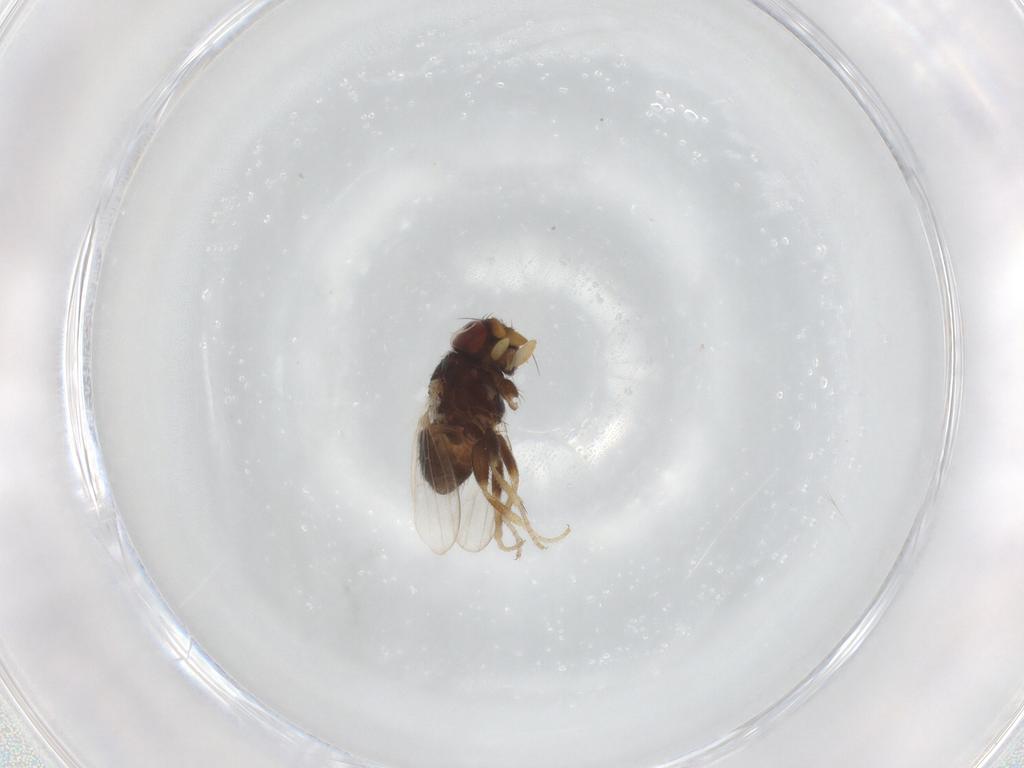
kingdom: Animalia
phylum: Arthropoda
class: Insecta
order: Diptera
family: Milichiidae
